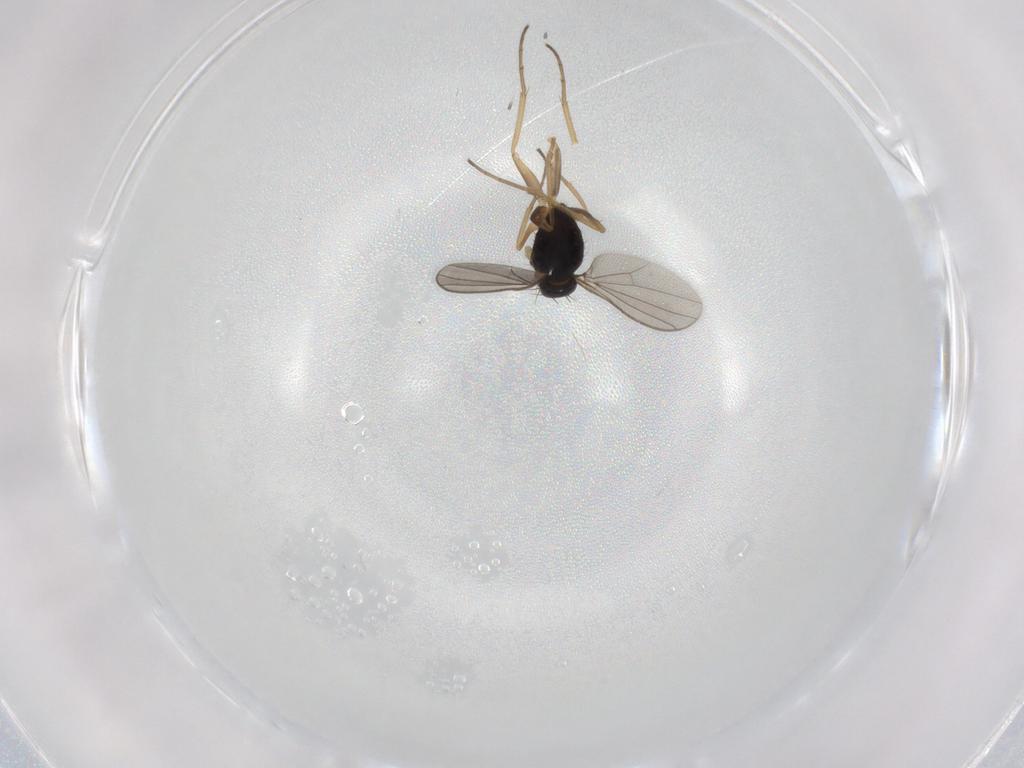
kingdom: Animalia
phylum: Arthropoda
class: Insecta
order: Diptera
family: Dolichopodidae
